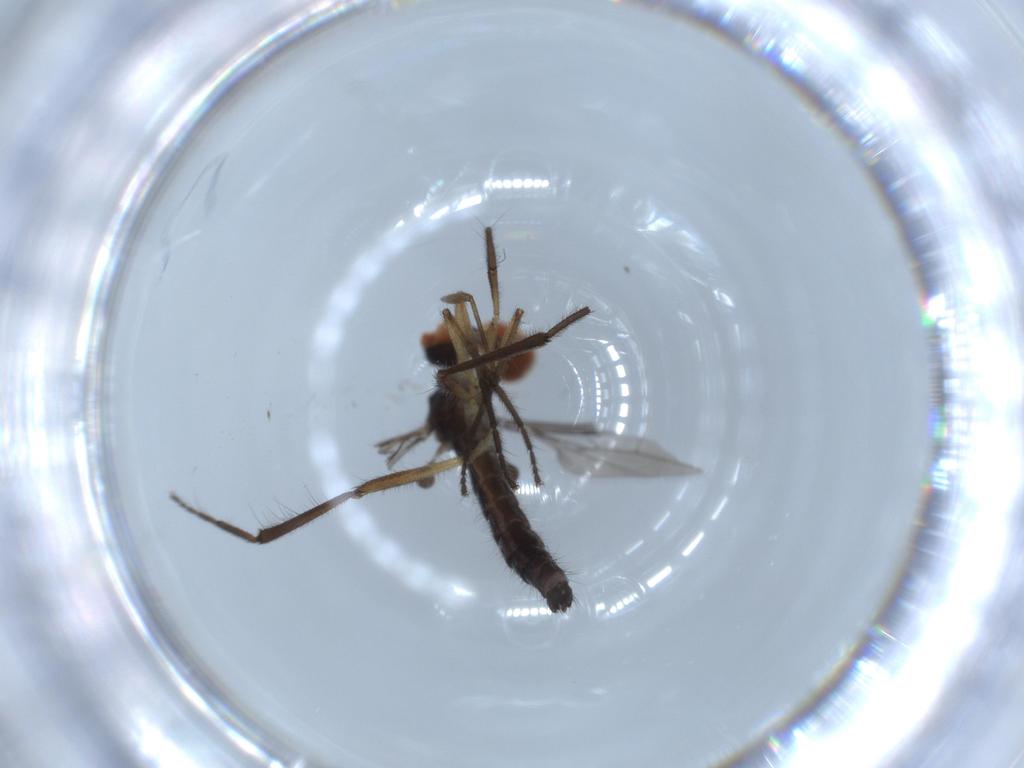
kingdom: Animalia
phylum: Arthropoda
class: Insecta
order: Diptera
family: Empididae
